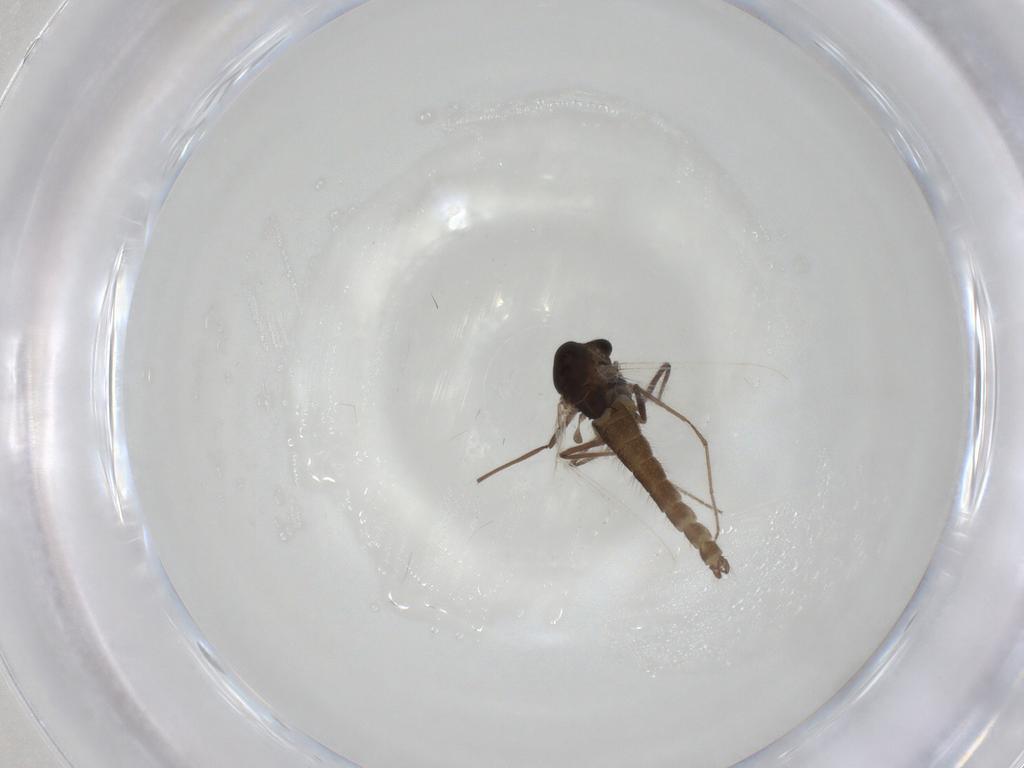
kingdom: Animalia
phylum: Arthropoda
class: Insecta
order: Diptera
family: Chironomidae
